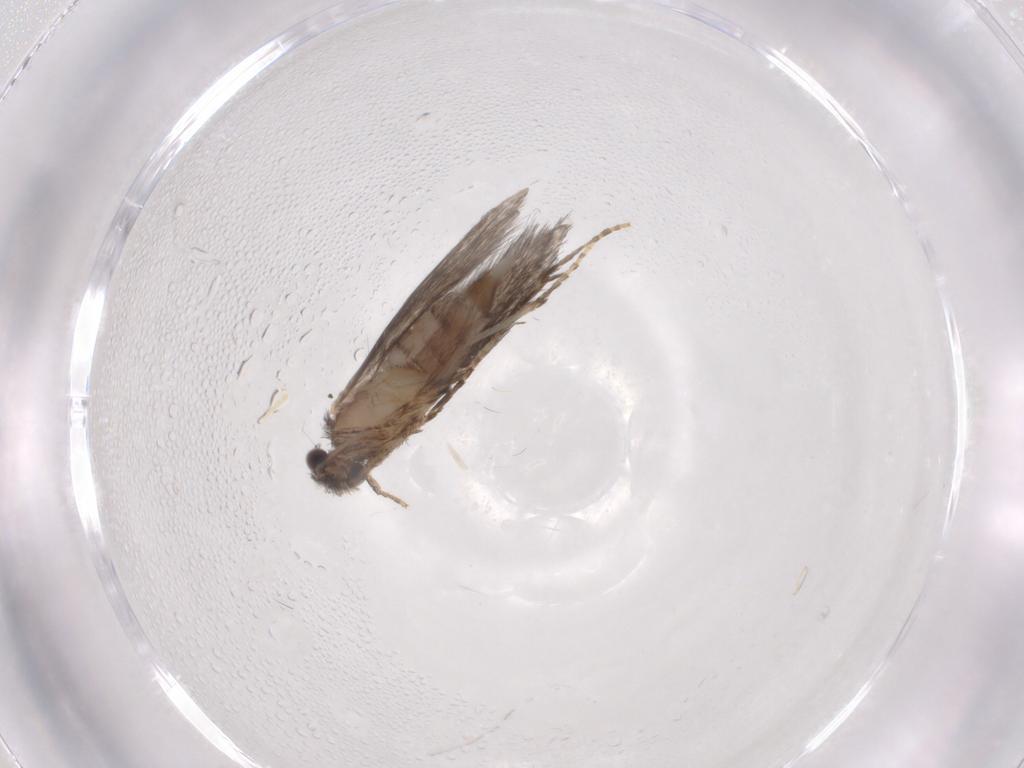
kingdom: Animalia
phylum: Arthropoda
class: Insecta
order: Trichoptera
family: Hydroptilidae
